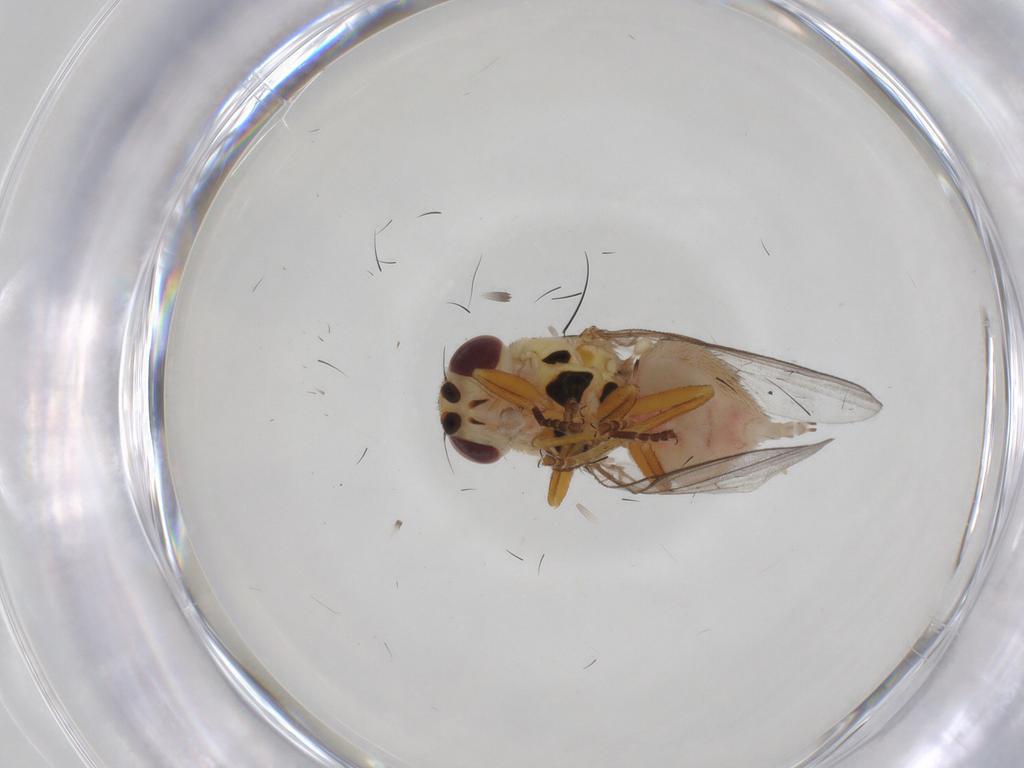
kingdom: Animalia
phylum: Arthropoda
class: Insecta
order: Diptera
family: Chloropidae
